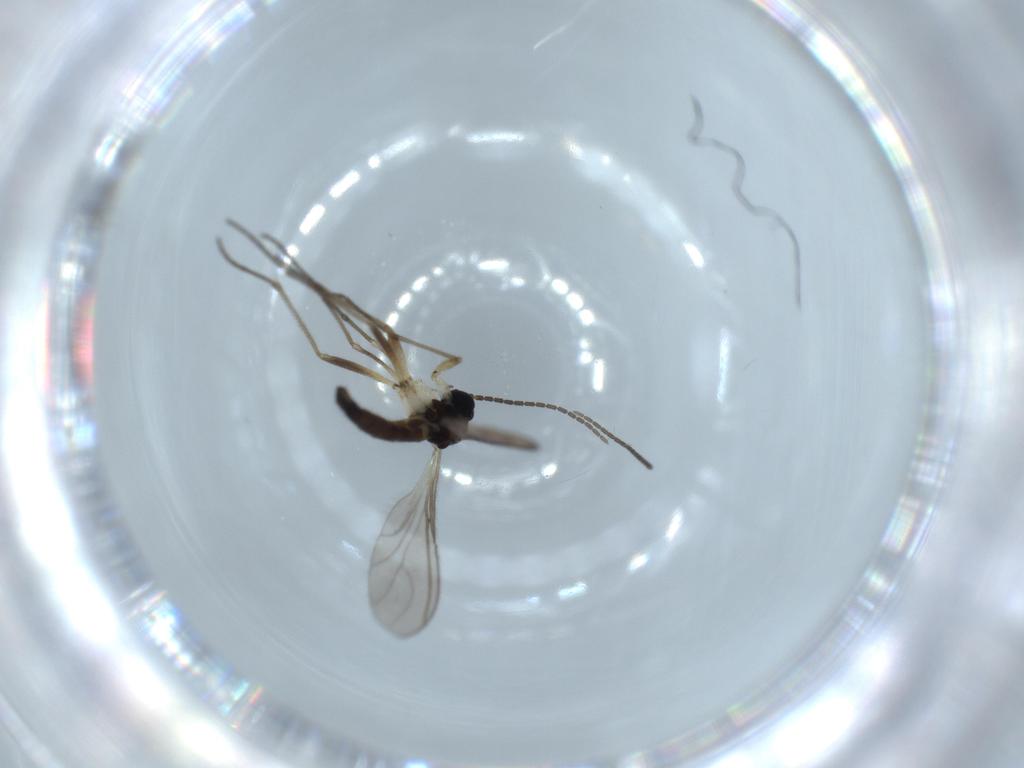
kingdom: Animalia
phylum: Arthropoda
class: Insecta
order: Diptera
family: Sciaridae
